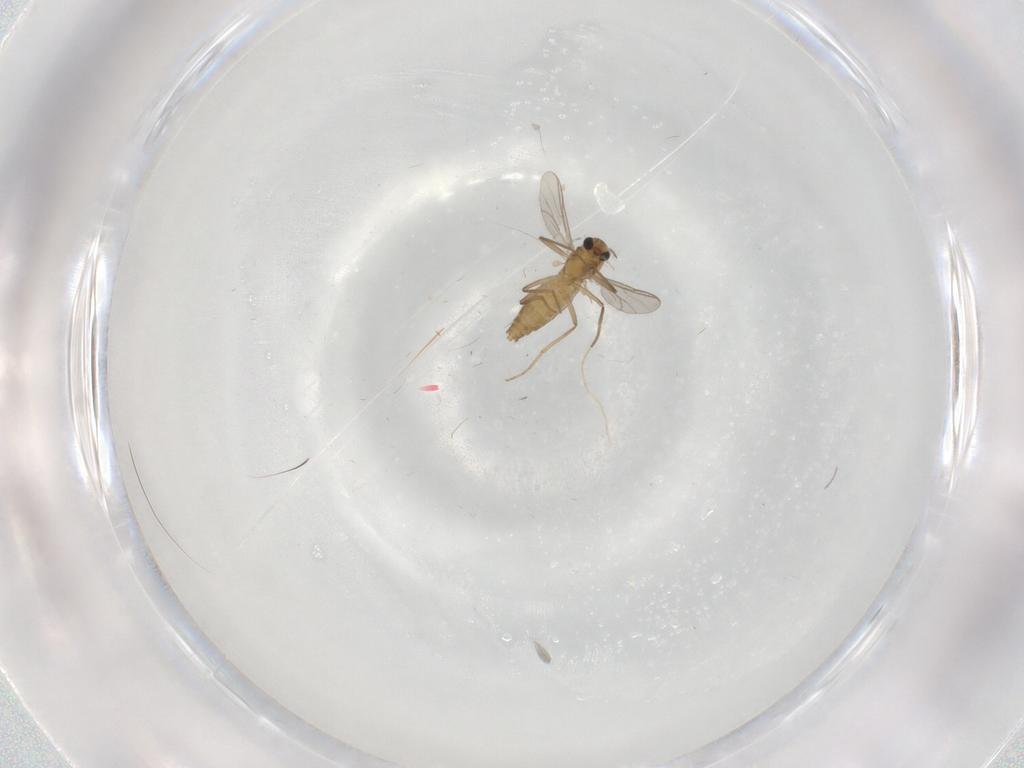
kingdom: Animalia
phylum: Arthropoda
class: Insecta
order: Diptera
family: Chironomidae
